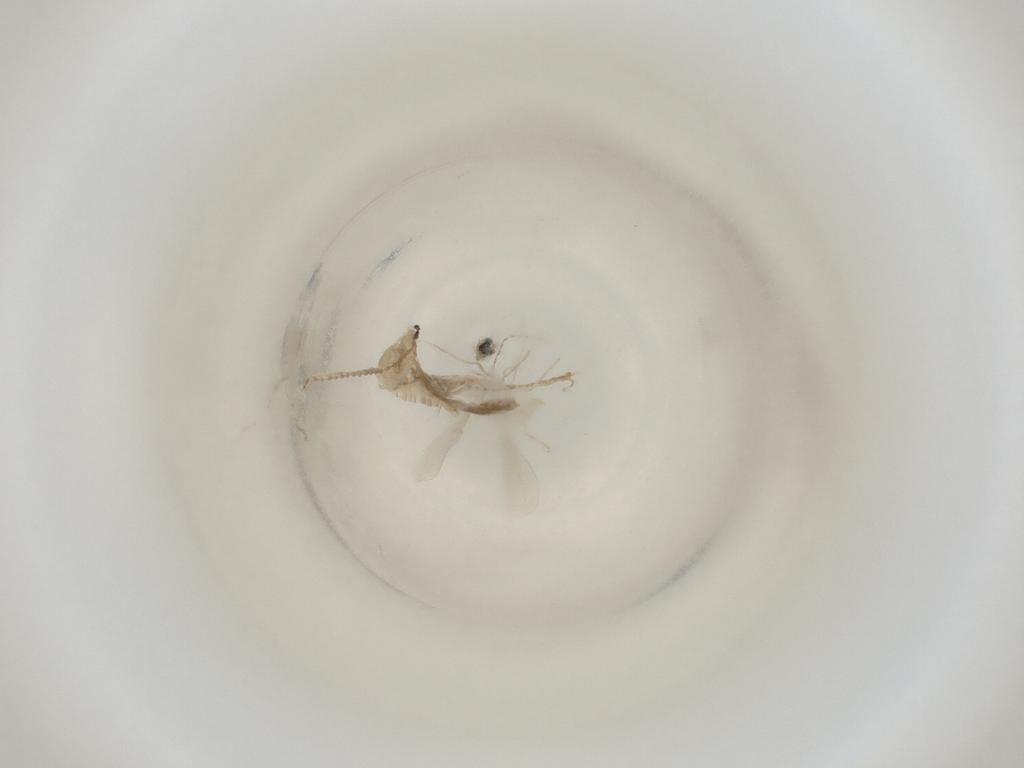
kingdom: Animalia
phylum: Arthropoda
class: Insecta
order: Diptera
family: Cecidomyiidae
